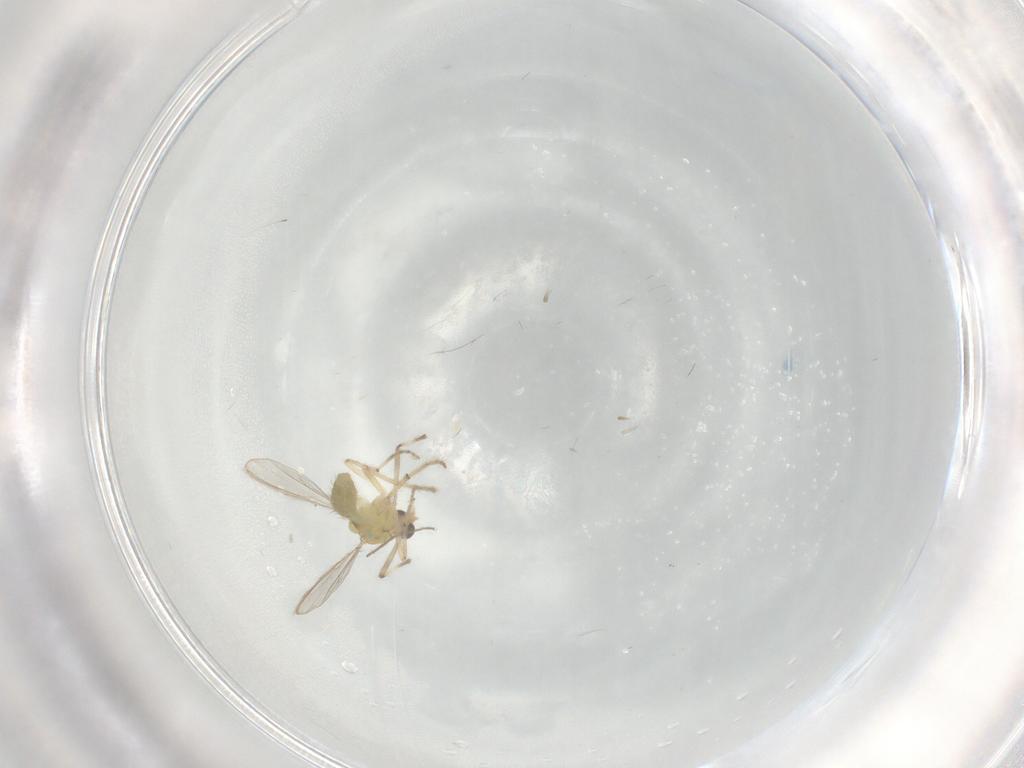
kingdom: Animalia
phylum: Arthropoda
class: Insecta
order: Diptera
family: Chironomidae
